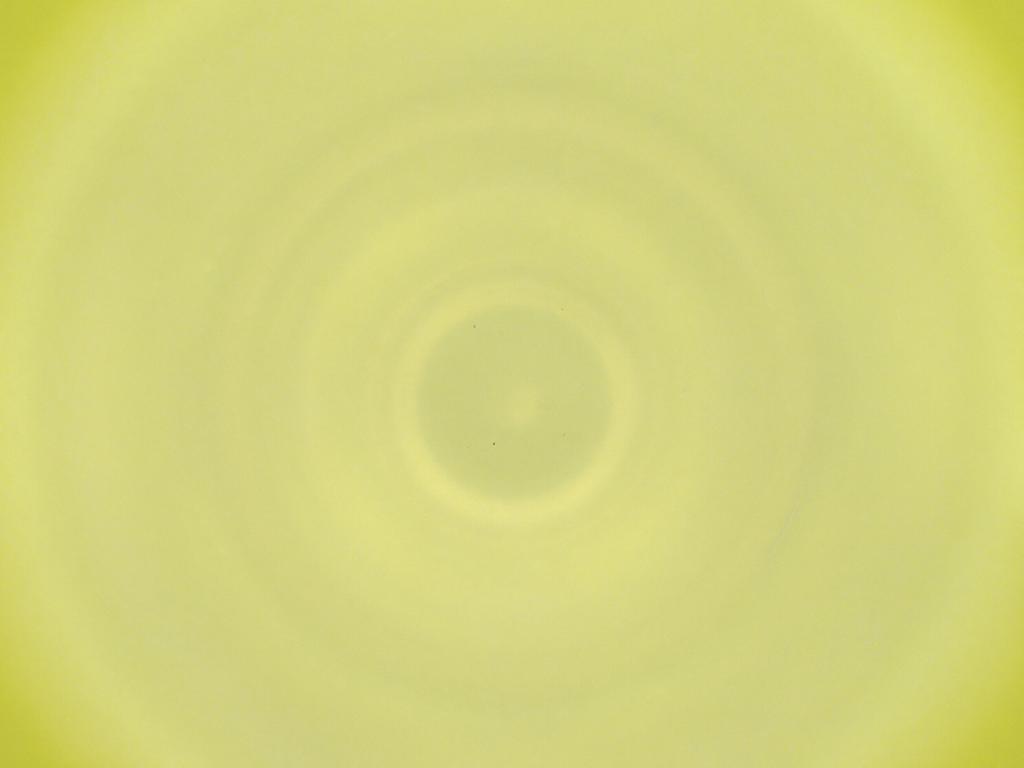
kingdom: Animalia
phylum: Arthropoda
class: Insecta
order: Diptera
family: Cecidomyiidae
